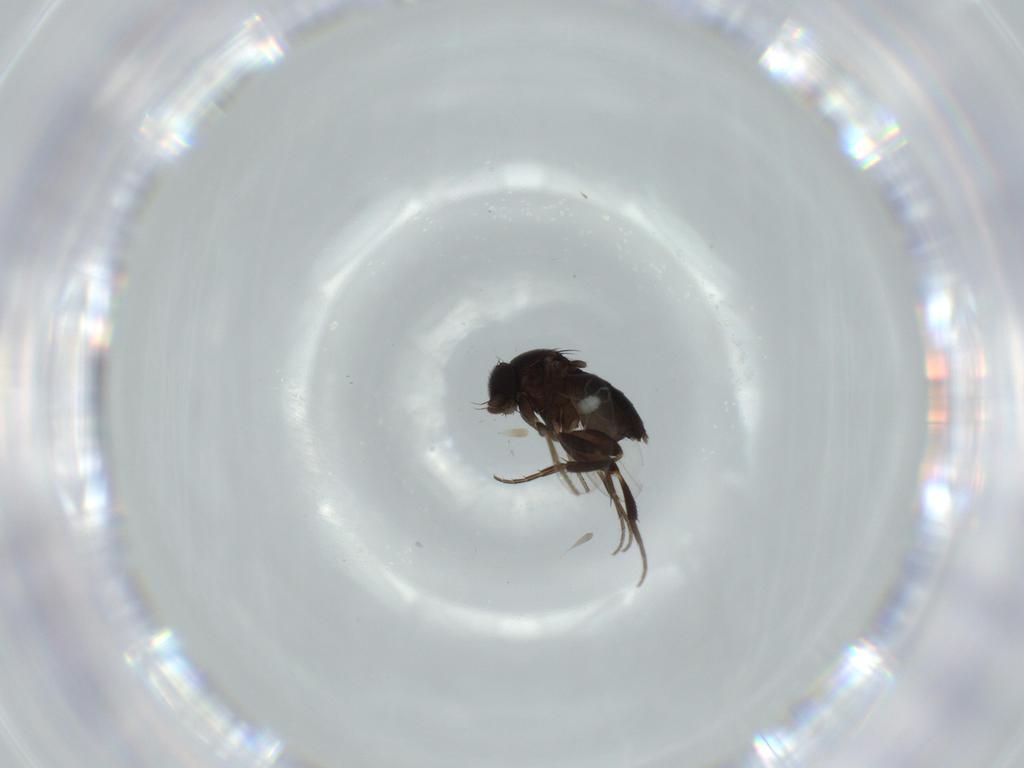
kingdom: Animalia
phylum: Arthropoda
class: Insecta
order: Diptera
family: Phoridae
